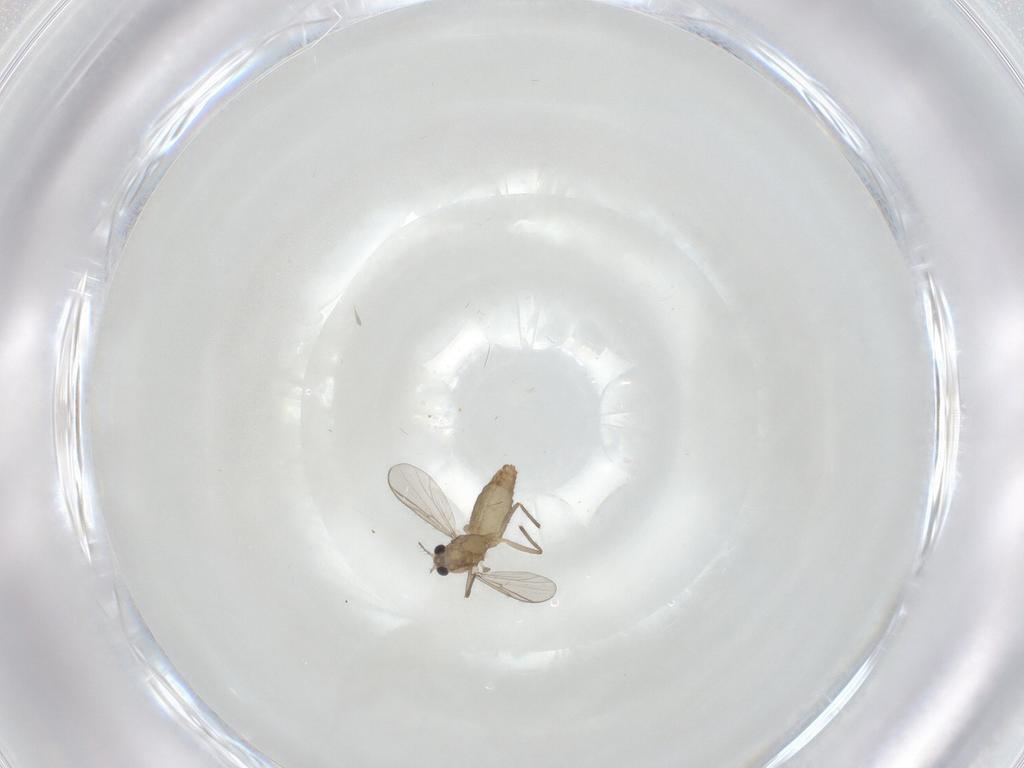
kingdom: Animalia
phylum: Arthropoda
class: Insecta
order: Diptera
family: Chironomidae
